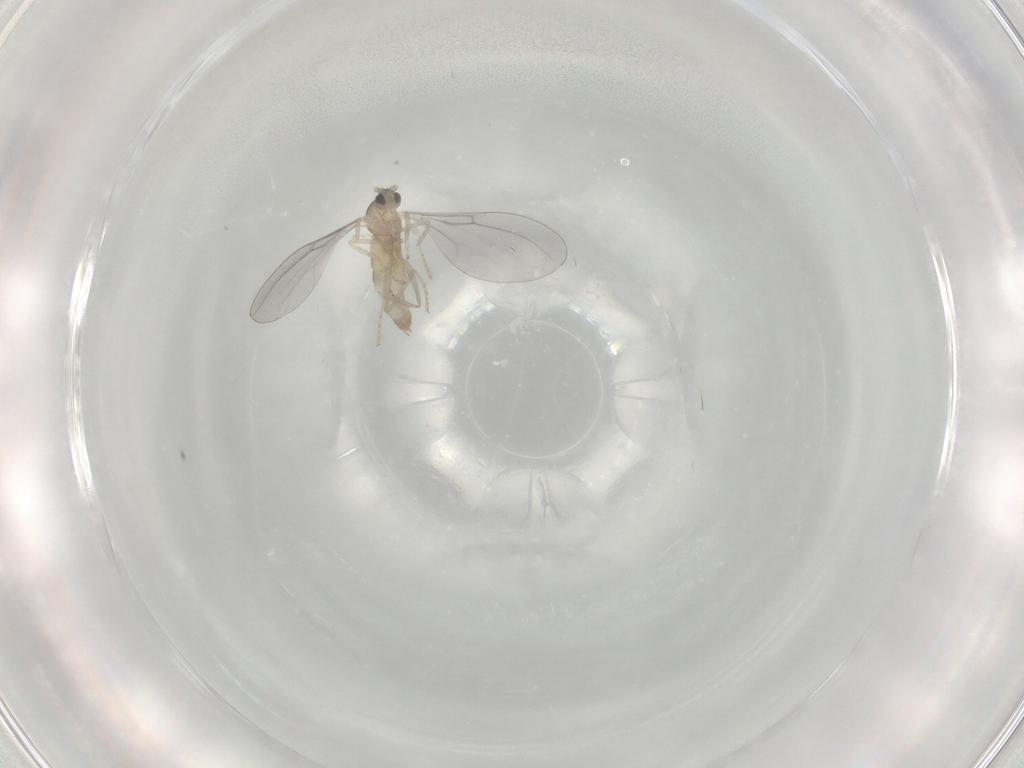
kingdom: Animalia
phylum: Arthropoda
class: Insecta
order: Diptera
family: Cecidomyiidae
